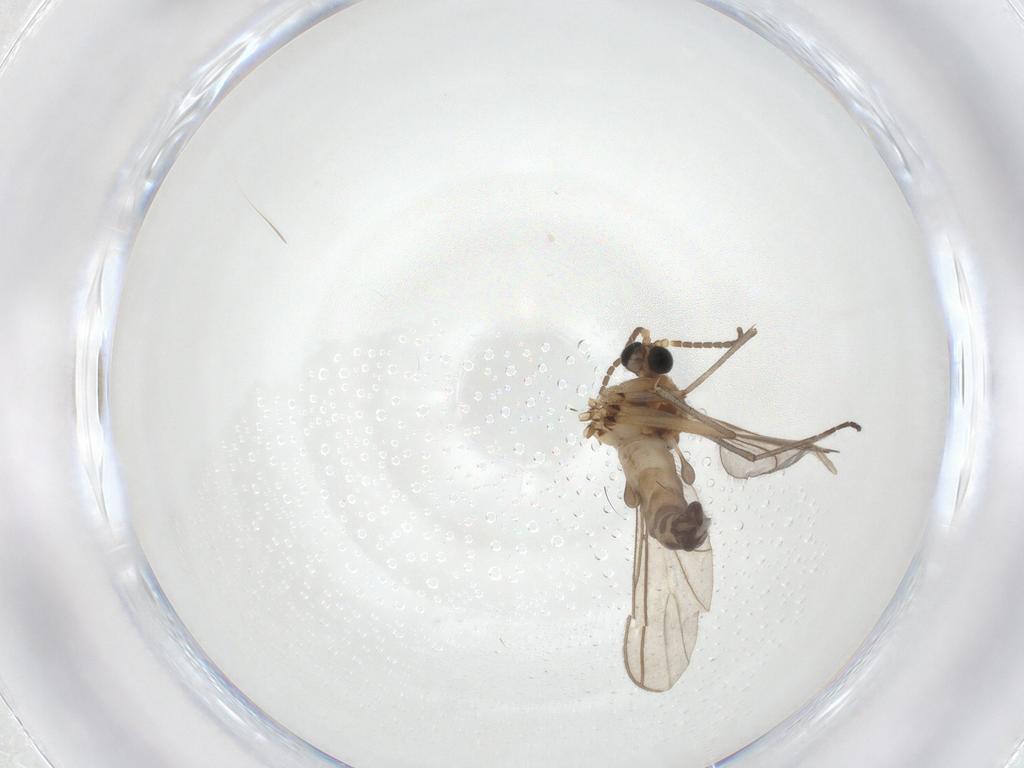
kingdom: Animalia
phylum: Arthropoda
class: Insecta
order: Diptera
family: Sciaridae
